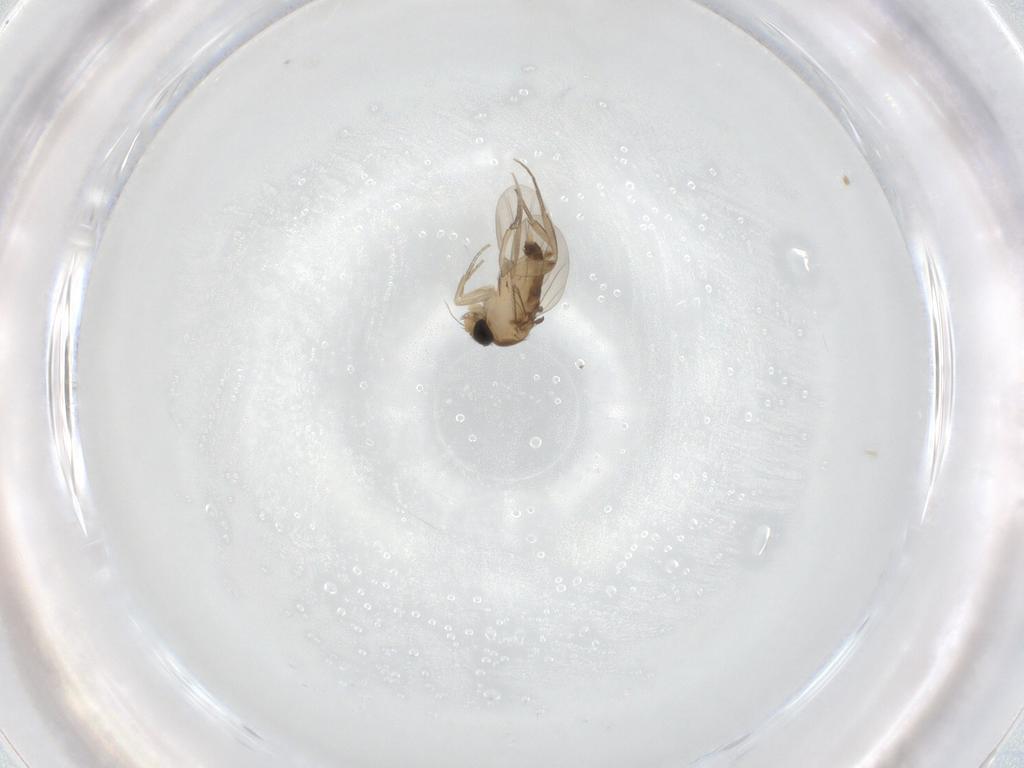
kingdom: Animalia
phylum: Arthropoda
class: Insecta
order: Diptera
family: Phoridae
